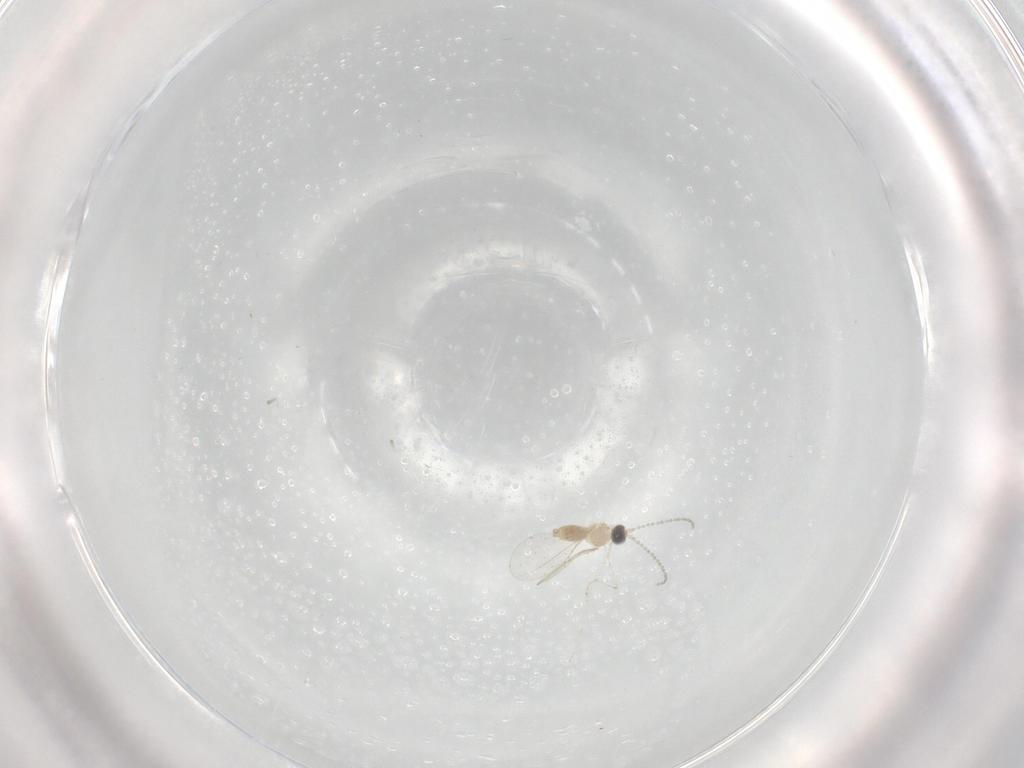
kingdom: Animalia
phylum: Arthropoda
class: Insecta
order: Diptera
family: Cecidomyiidae
